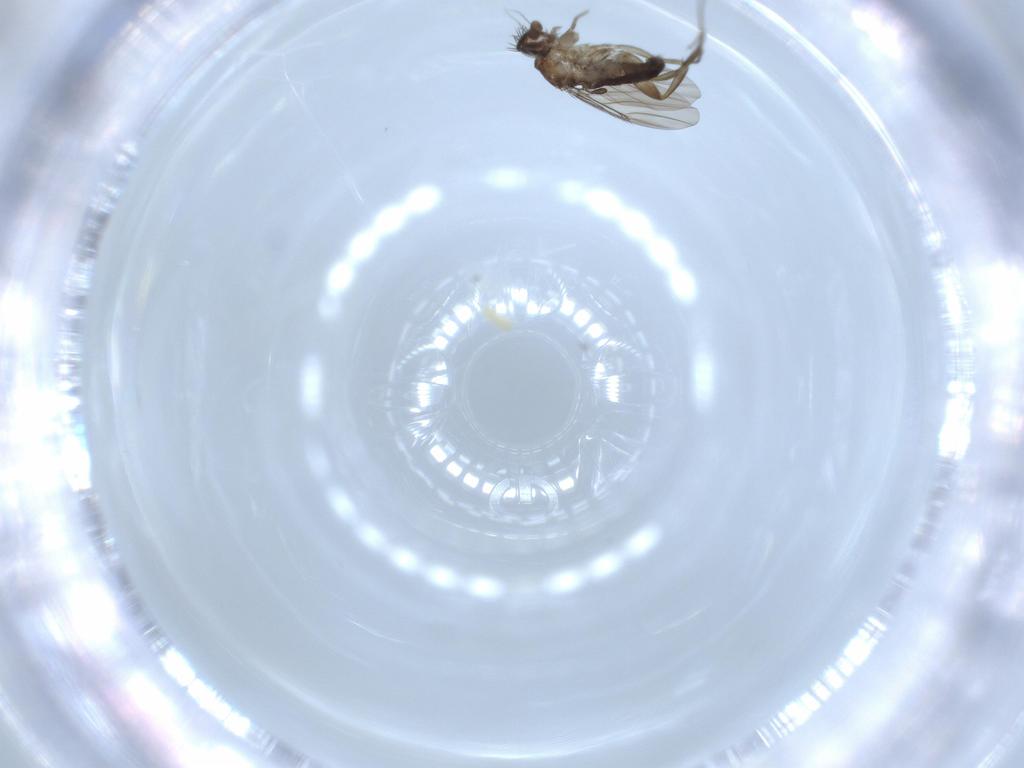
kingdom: Animalia
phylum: Arthropoda
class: Insecta
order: Diptera
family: Phoridae
